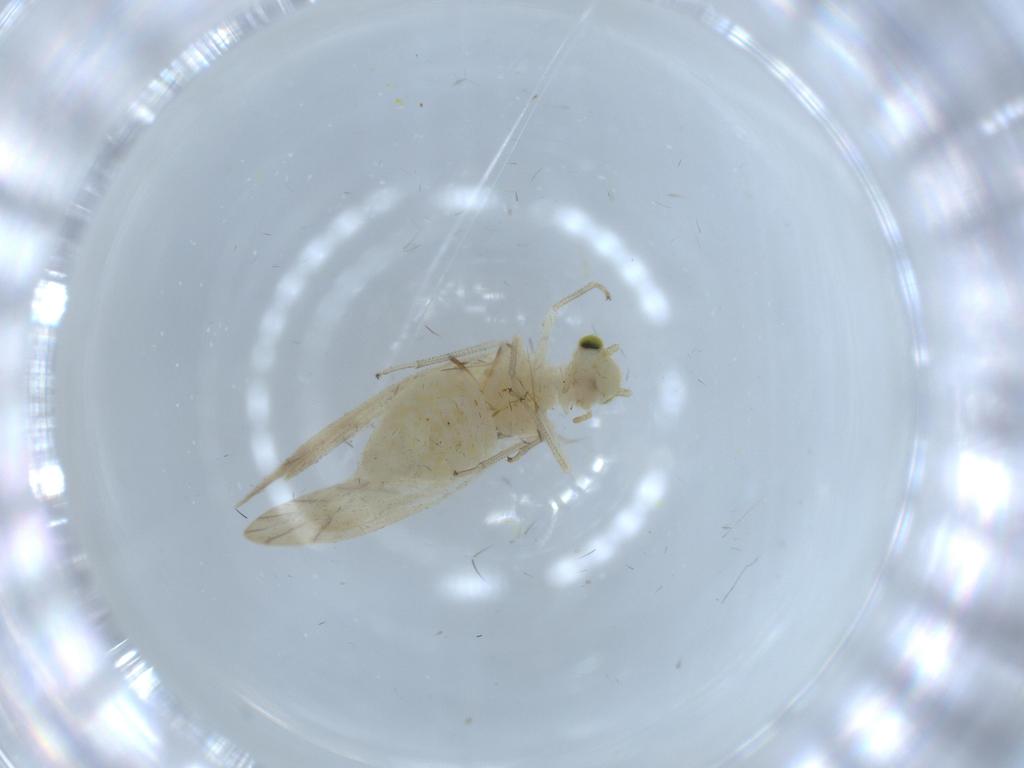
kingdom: Animalia
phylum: Arthropoda
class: Insecta
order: Psocodea
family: Caeciliusidae
